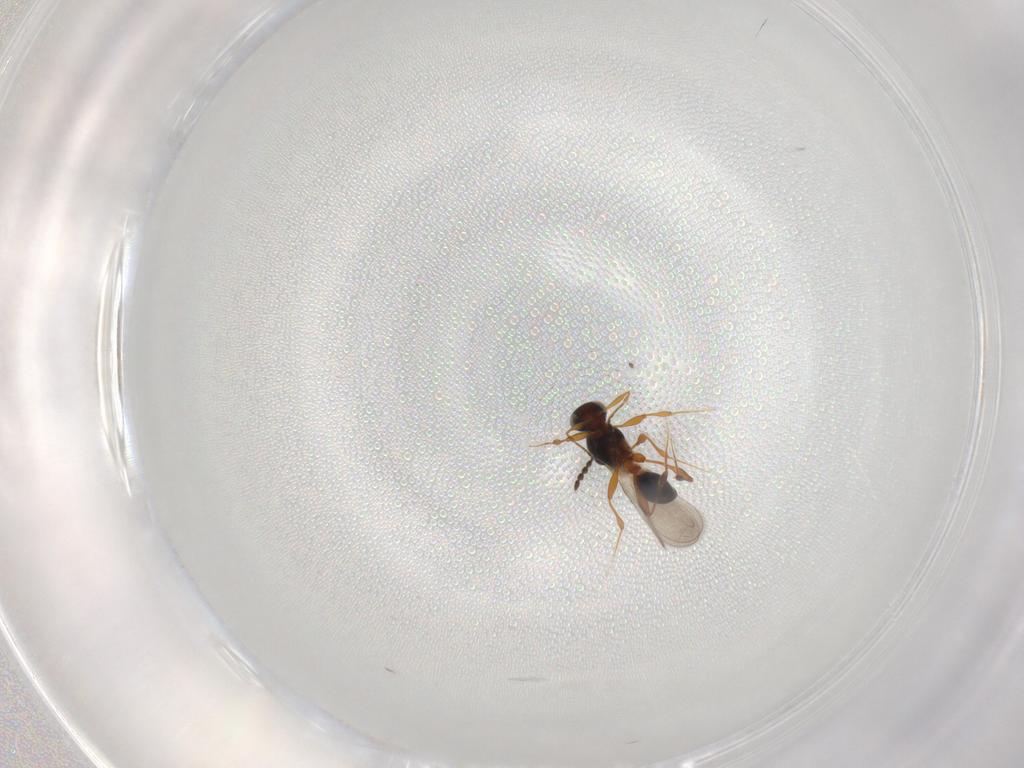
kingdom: Animalia
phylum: Arthropoda
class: Insecta
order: Hymenoptera
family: Platygastridae
